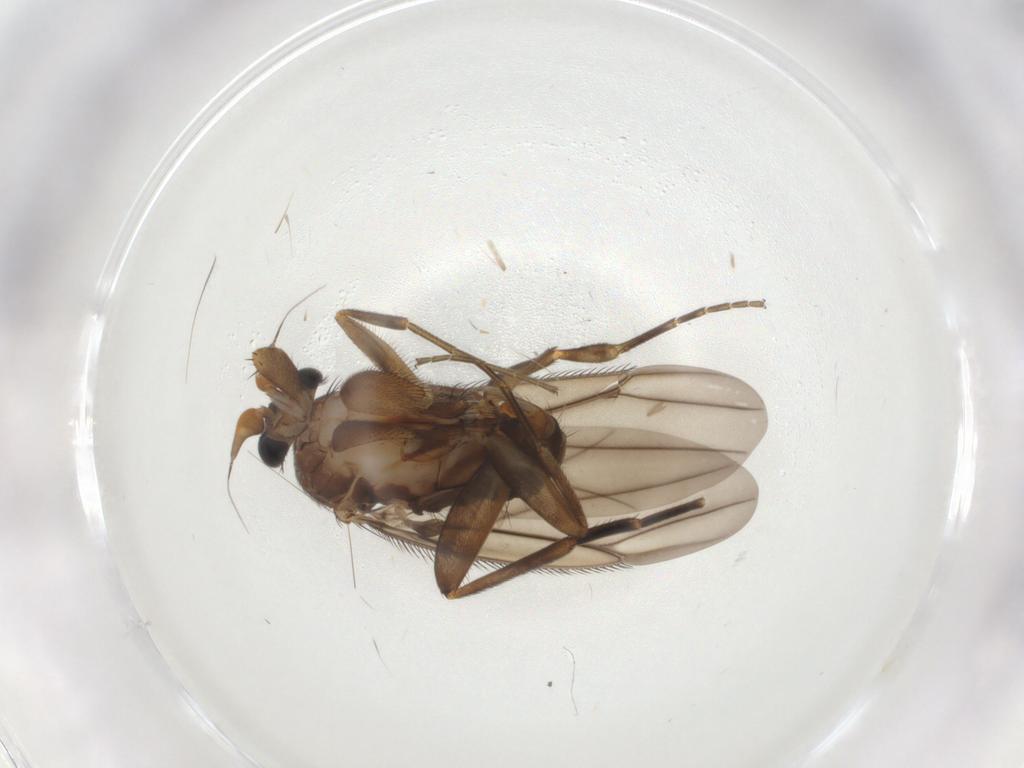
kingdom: Animalia
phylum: Arthropoda
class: Insecta
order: Diptera
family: Phoridae
